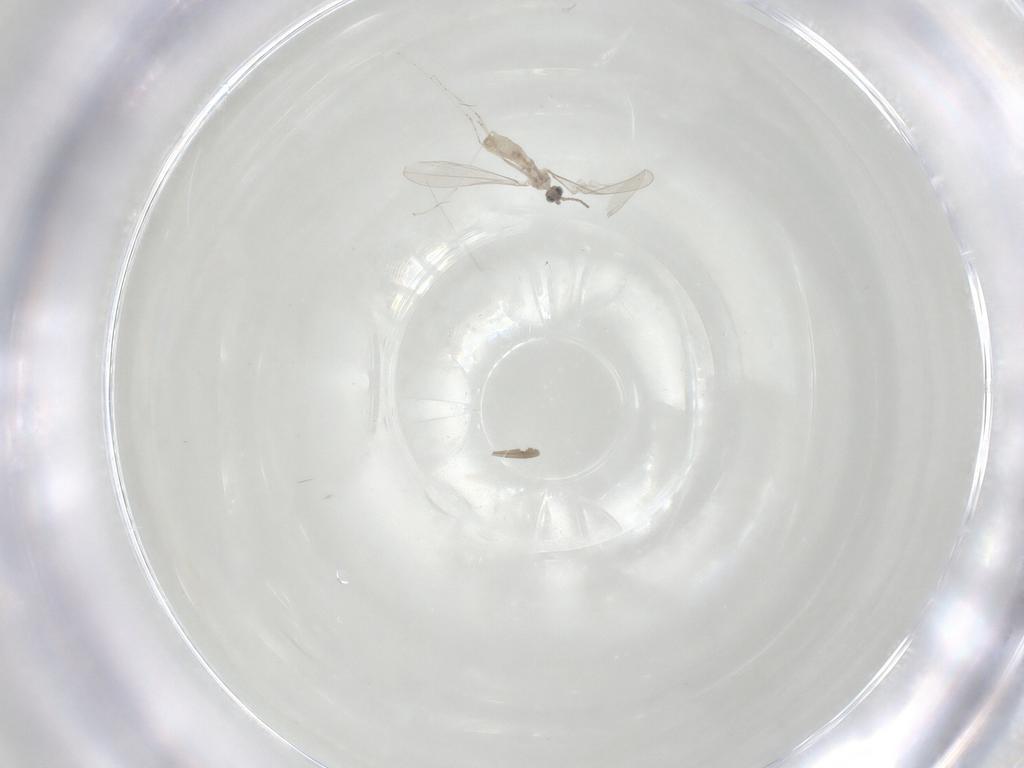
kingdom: Animalia
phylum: Arthropoda
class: Insecta
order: Diptera
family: Cecidomyiidae
